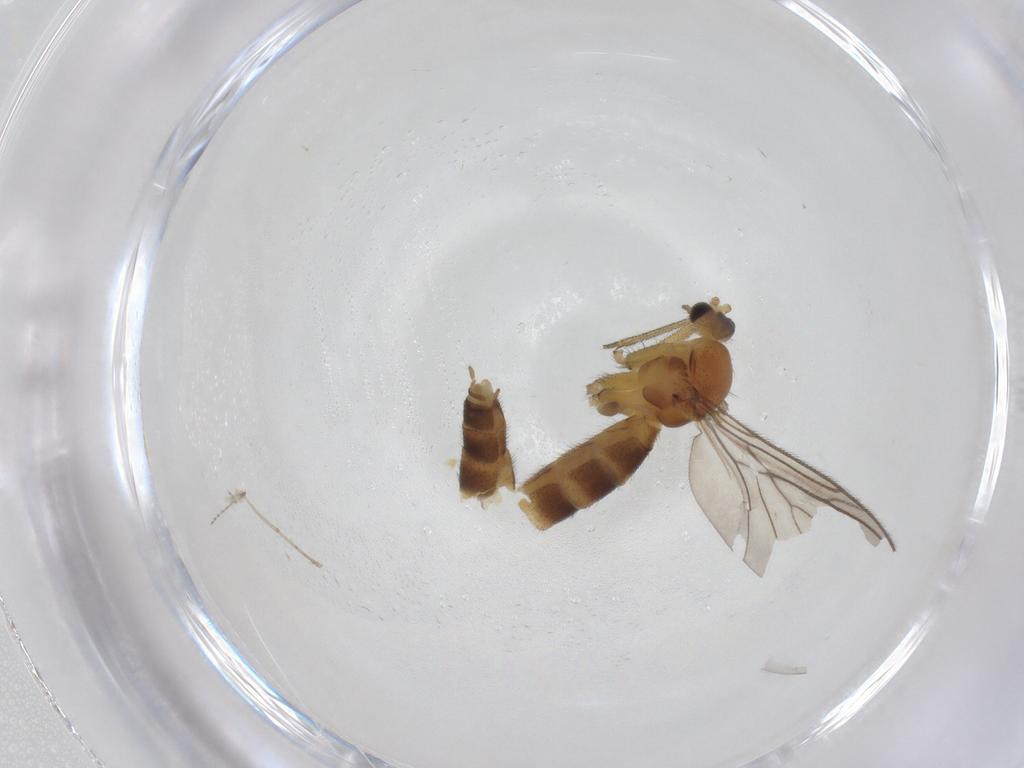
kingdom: Animalia
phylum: Arthropoda
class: Insecta
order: Diptera
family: Keroplatidae
